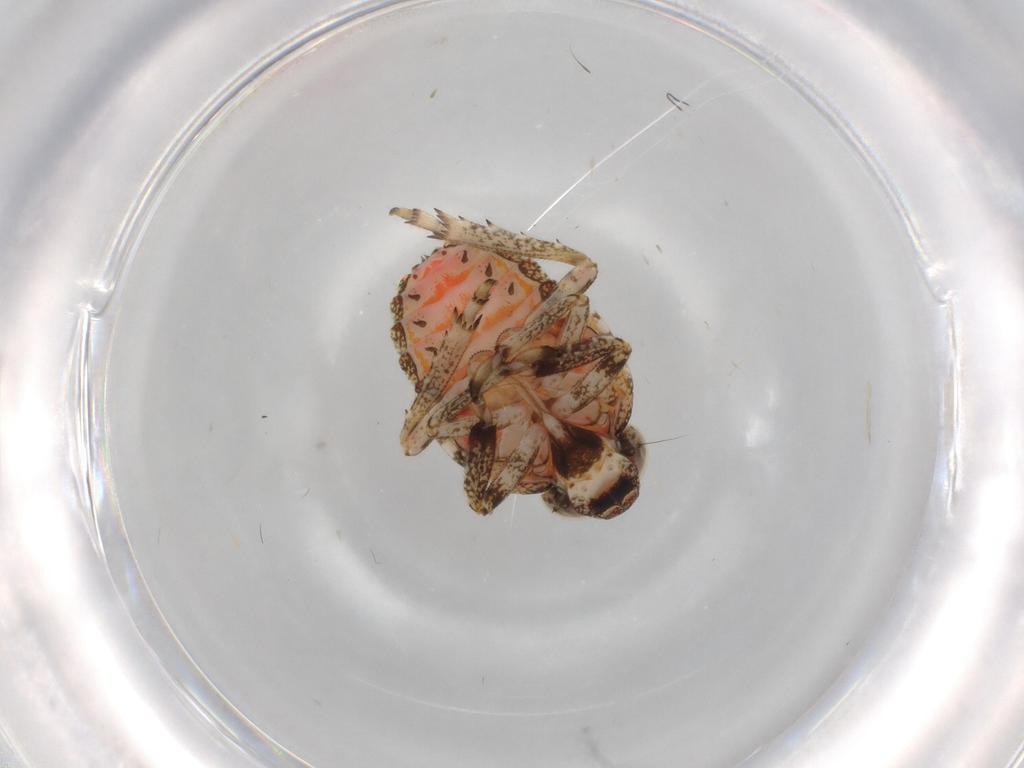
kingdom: Animalia
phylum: Arthropoda
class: Insecta
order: Hemiptera
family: Issidae
